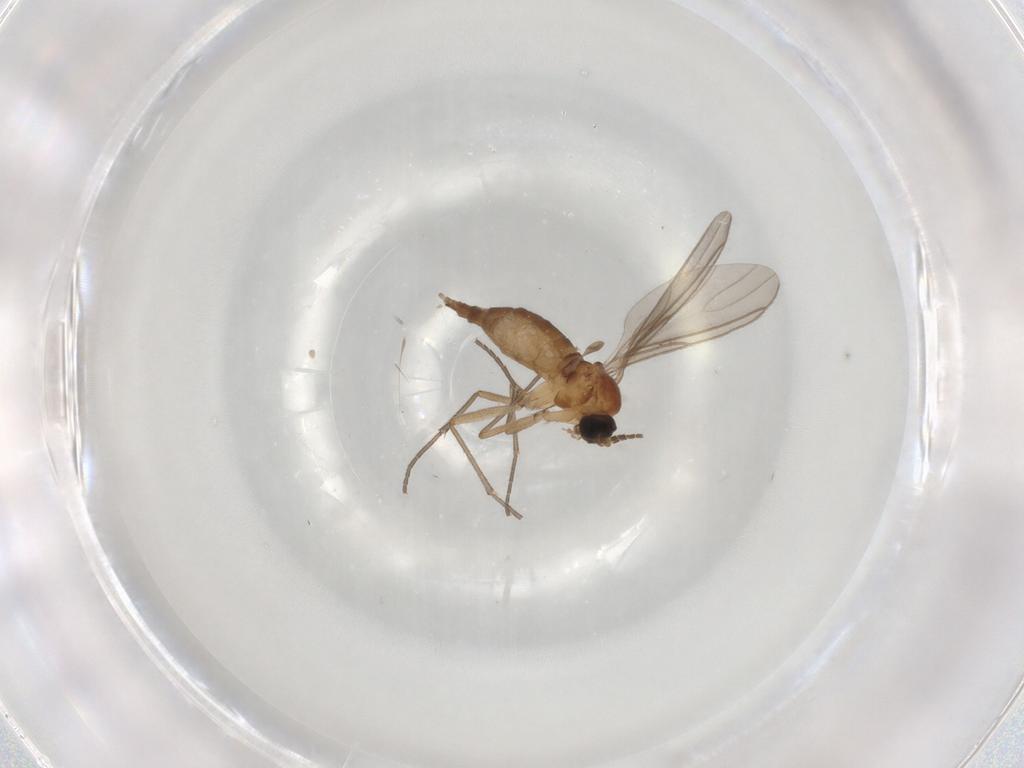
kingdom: Animalia
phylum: Arthropoda
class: Insecta
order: Diptera
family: Sciaridae
